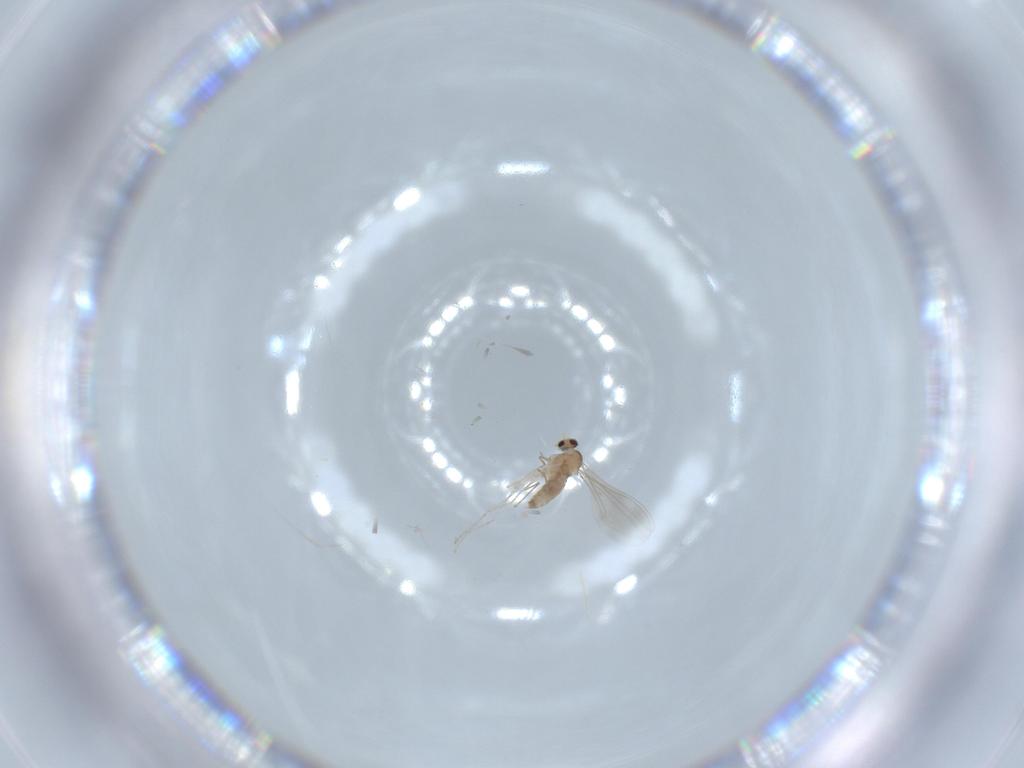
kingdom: Animalia
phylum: Arthropoda
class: Insecta
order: Diptera
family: Cecidomyiidae
